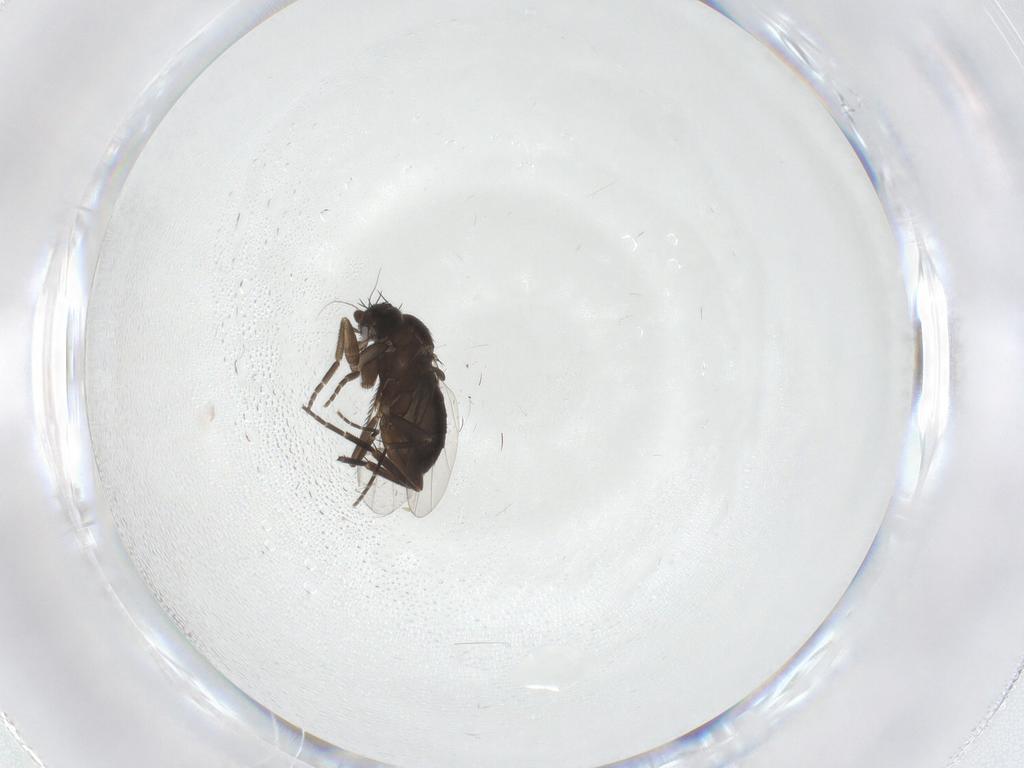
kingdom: Animalia
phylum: Arthropoda
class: Insecta
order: Diptera
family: Phoridae
